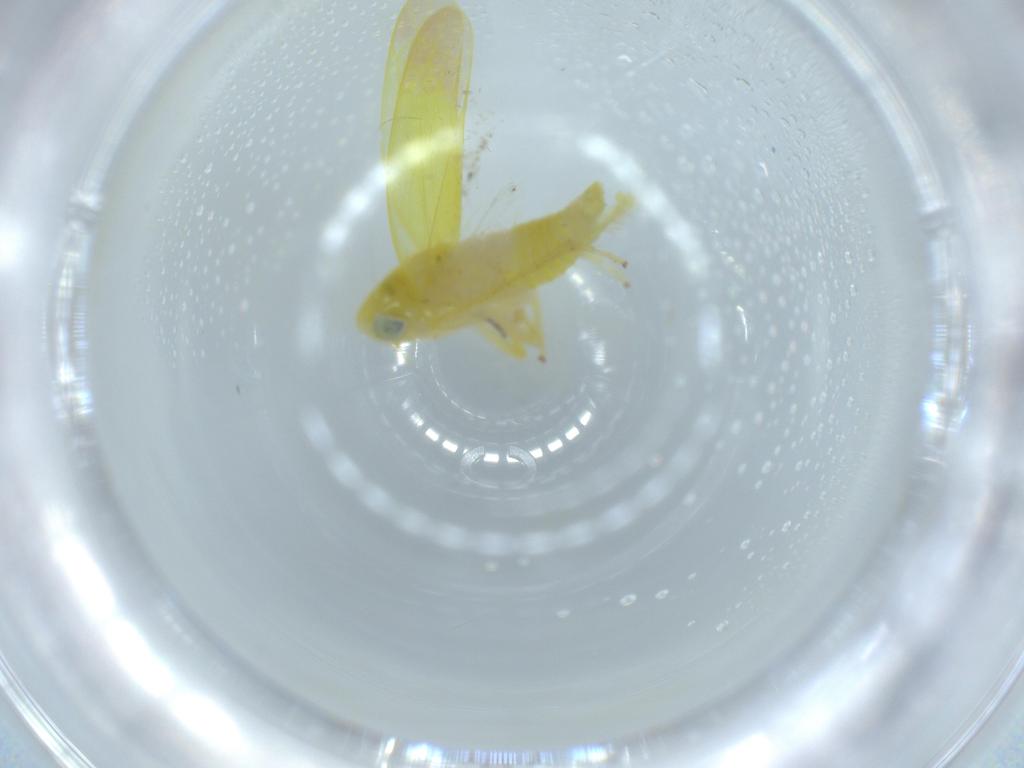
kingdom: Animalia
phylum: Arthropoda
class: Insecta
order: Hemiptera
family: Cicadellidae
